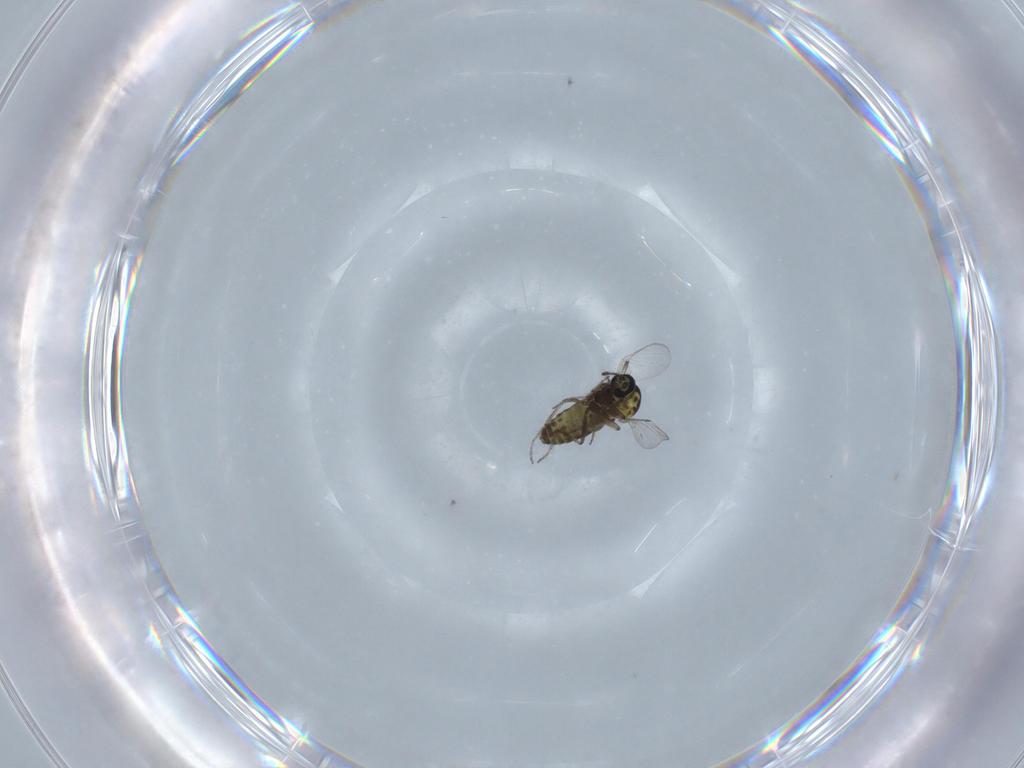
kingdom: Animalia
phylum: Arthropoda
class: Insecta
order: Diptera
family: Ceratopogonidae
